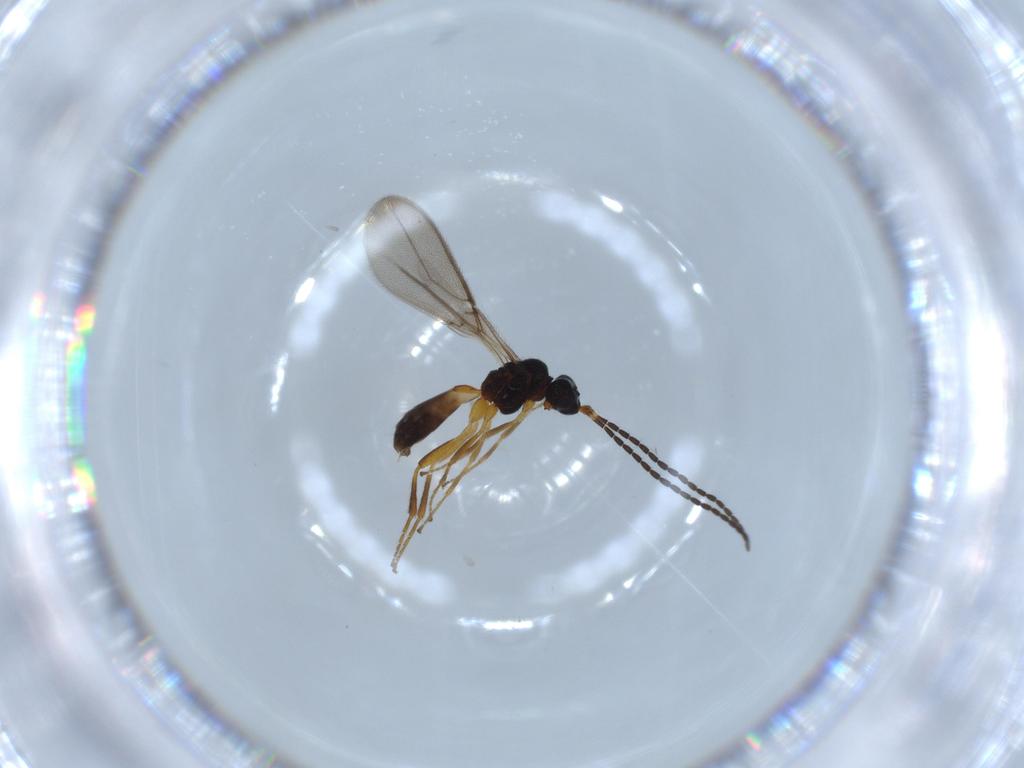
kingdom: Animalia
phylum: Arthropoda
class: Insecta
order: Hymenoptera
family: Braconidae
